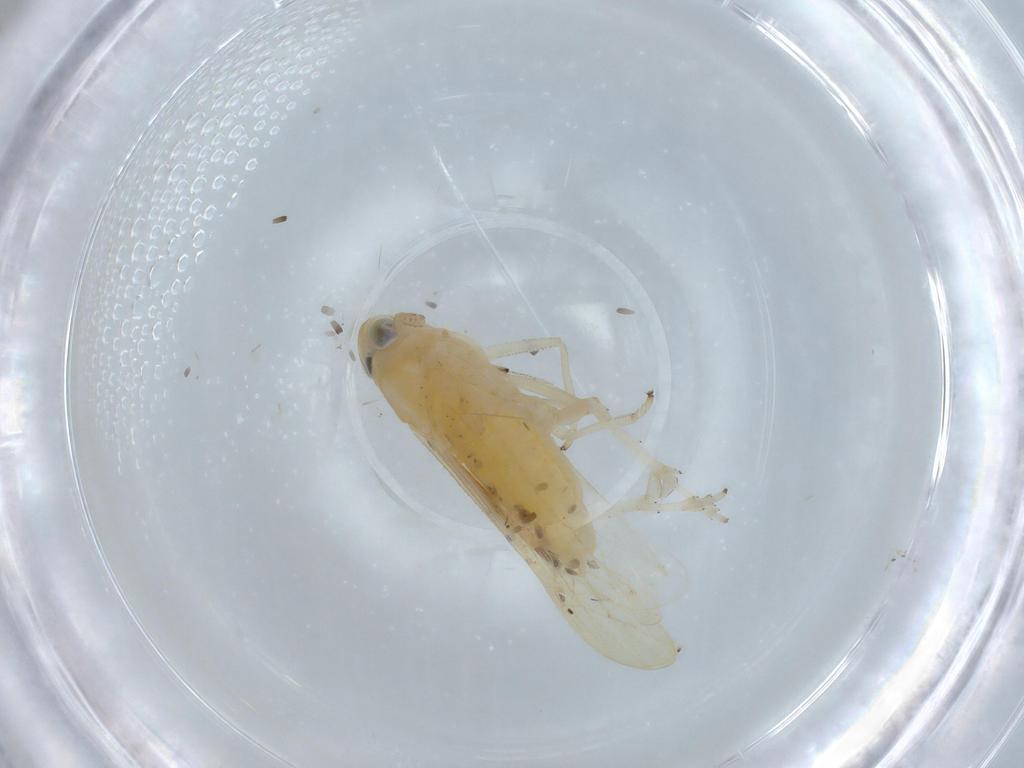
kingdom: Animalia
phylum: Arthropoda
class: Insecta
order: Hemiptera
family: Delphacidae
